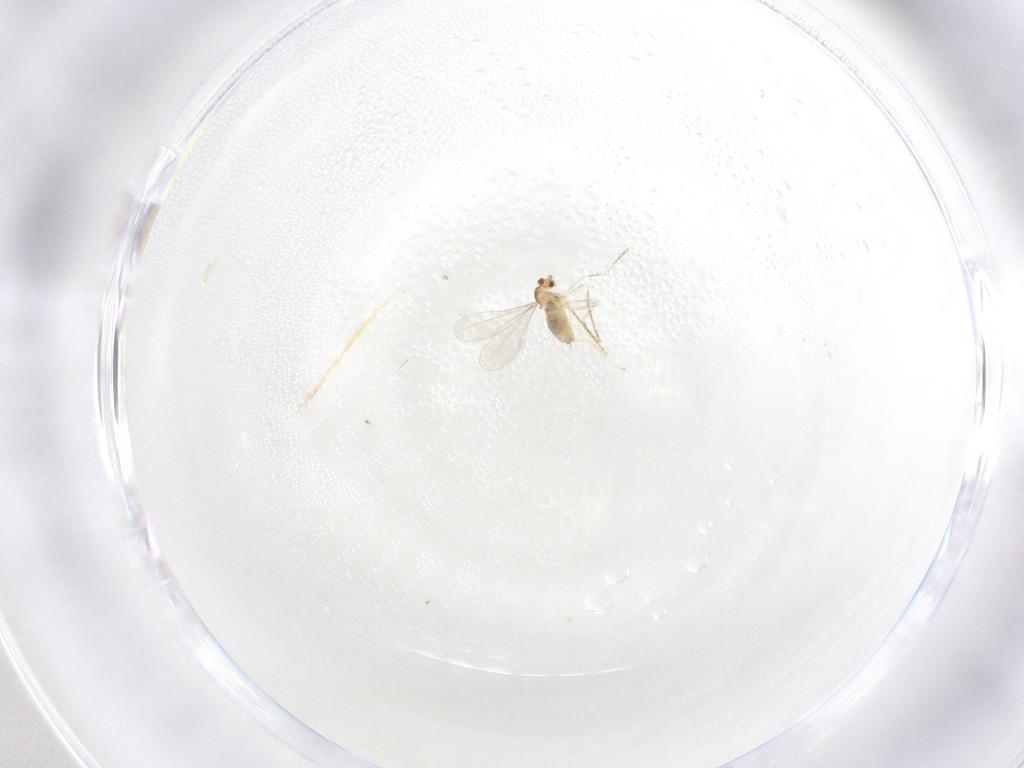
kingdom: Animalia
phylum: Arthropoda
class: Insecta
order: Diptera
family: Cecidomyiidae
